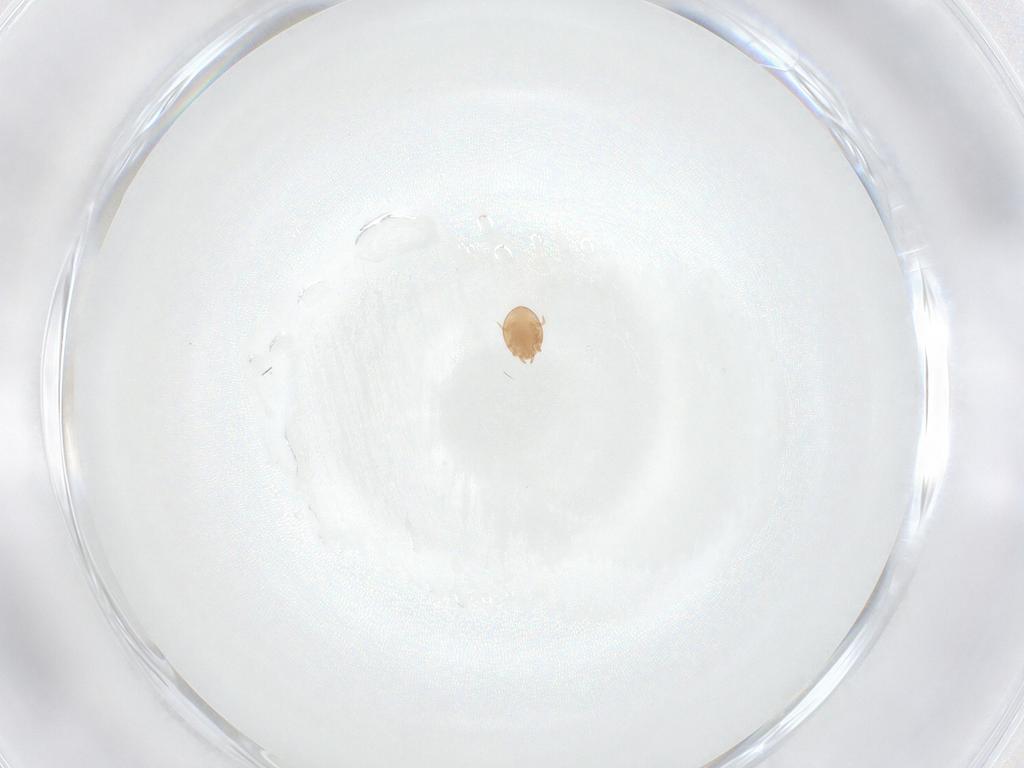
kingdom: Animalia
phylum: Arthropoda
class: Arachnida
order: Mesostigmata
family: Trematuridae
